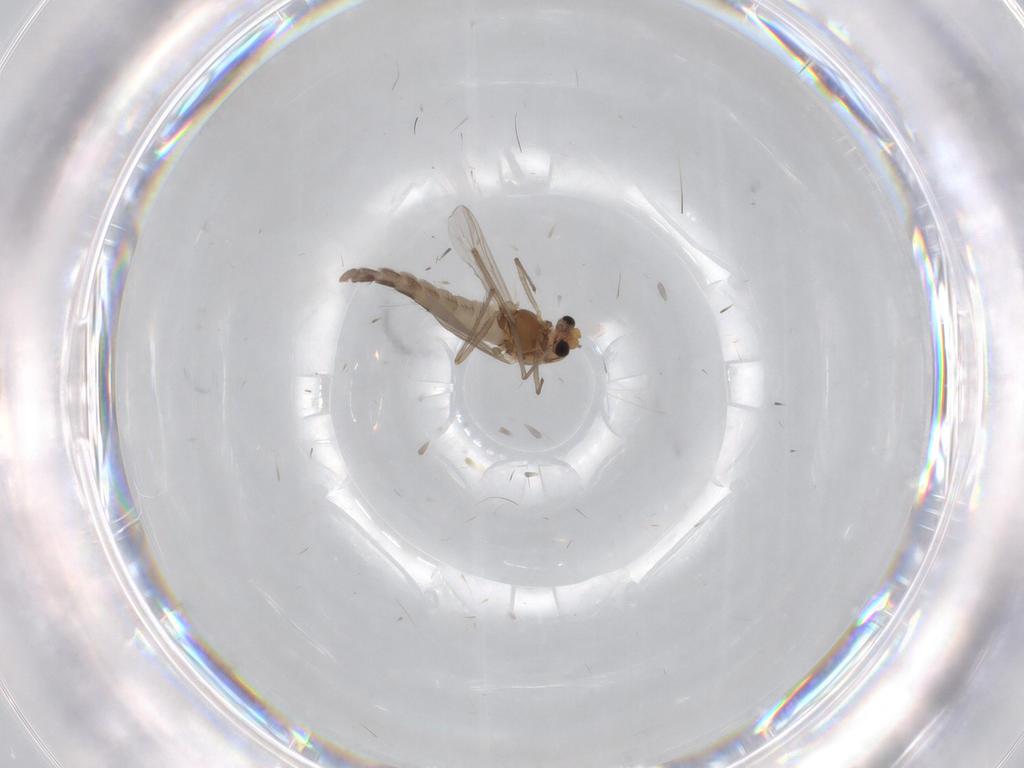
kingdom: Animalia
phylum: Arthropoda
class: Insecta
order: Diptera
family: Chironomidae
